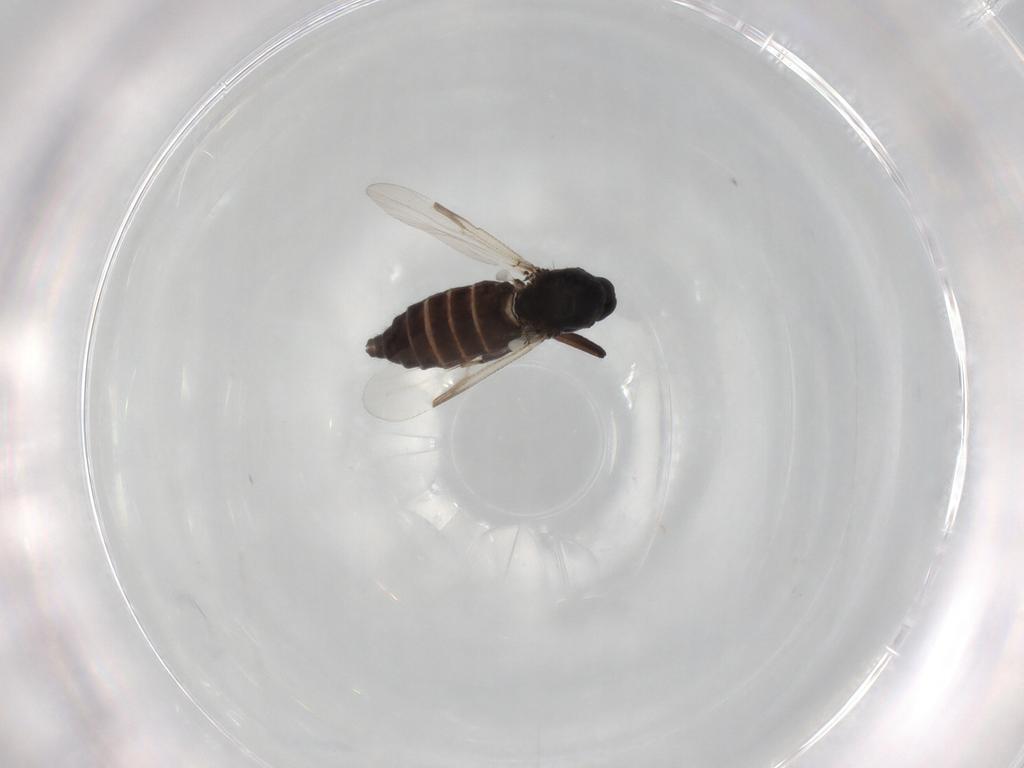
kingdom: Animalia
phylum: Arthropoda
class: Insecta
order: Diptera
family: Ceratopogonidae
